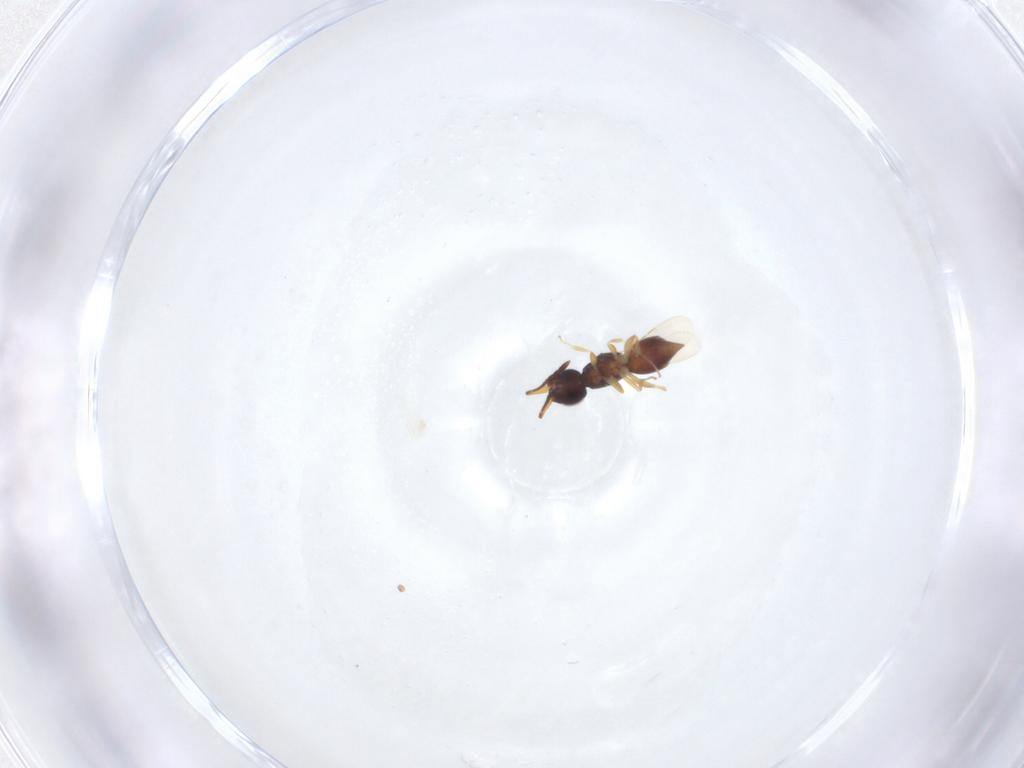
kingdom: Animalia
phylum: Arthropoda
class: Insecta
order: Hymenoptera
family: Ceraphronidae
